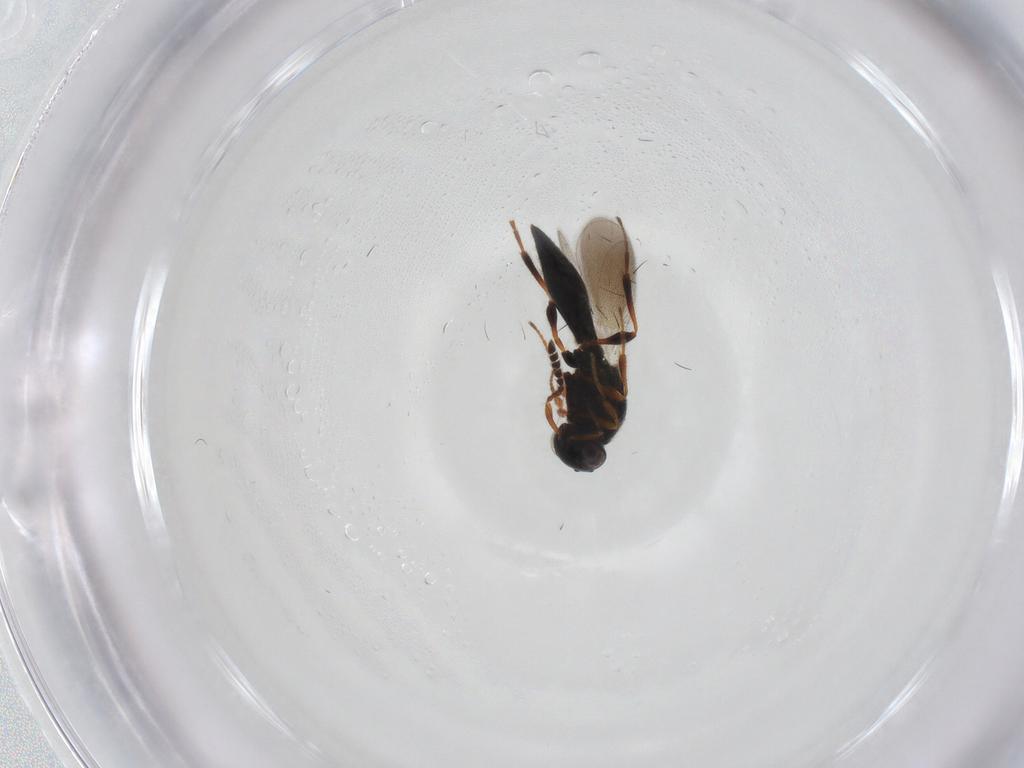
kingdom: Animalia
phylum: Arthropoda
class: Insecta
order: Hymenoptera
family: Platygastridae
